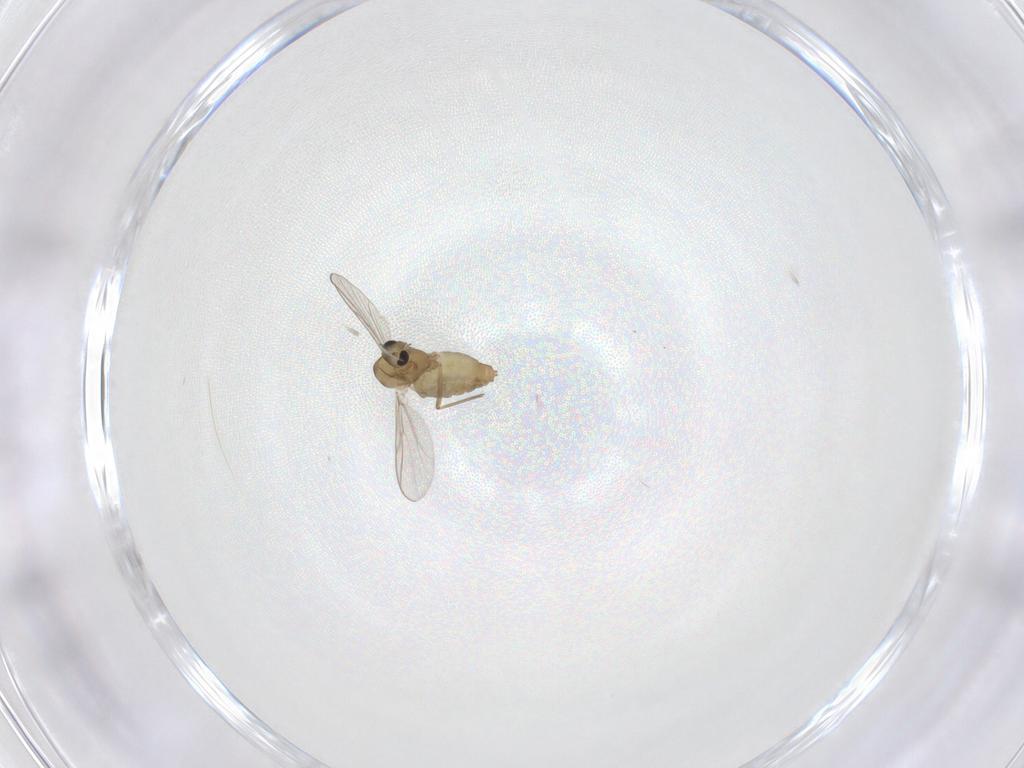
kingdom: Animalia
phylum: Arthropoda
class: Insecta
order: Diptera
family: Chironomidae
